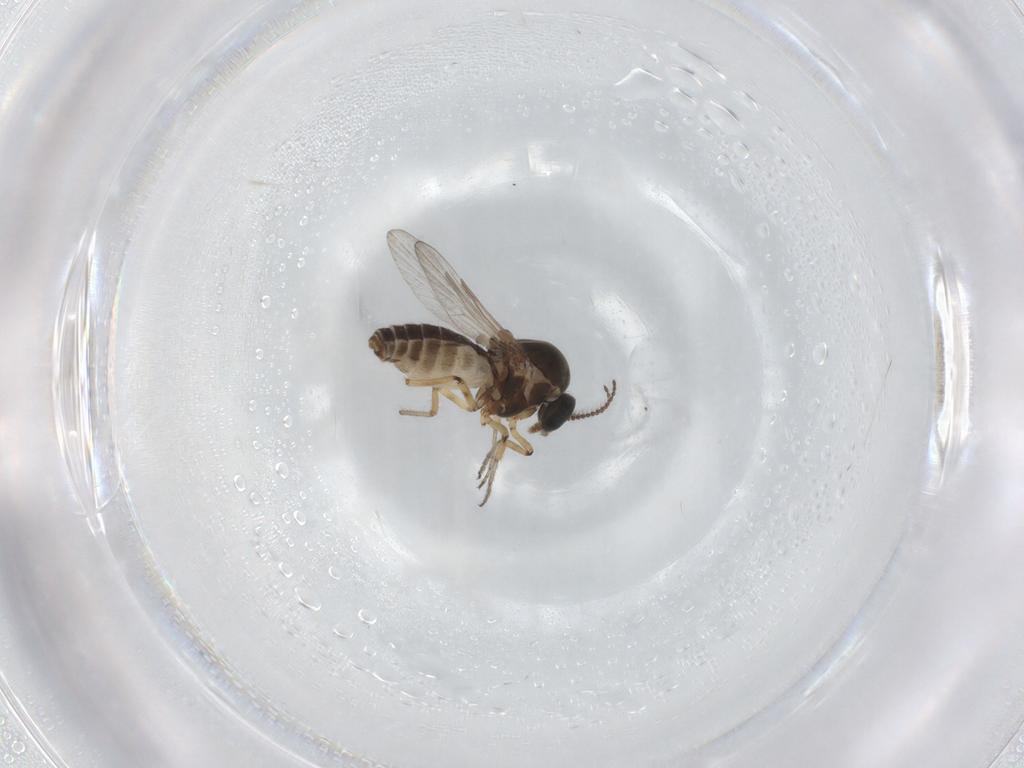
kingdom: Animalia
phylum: Arthropoda
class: Insecta
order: Diptera
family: Ceratopogonidae
